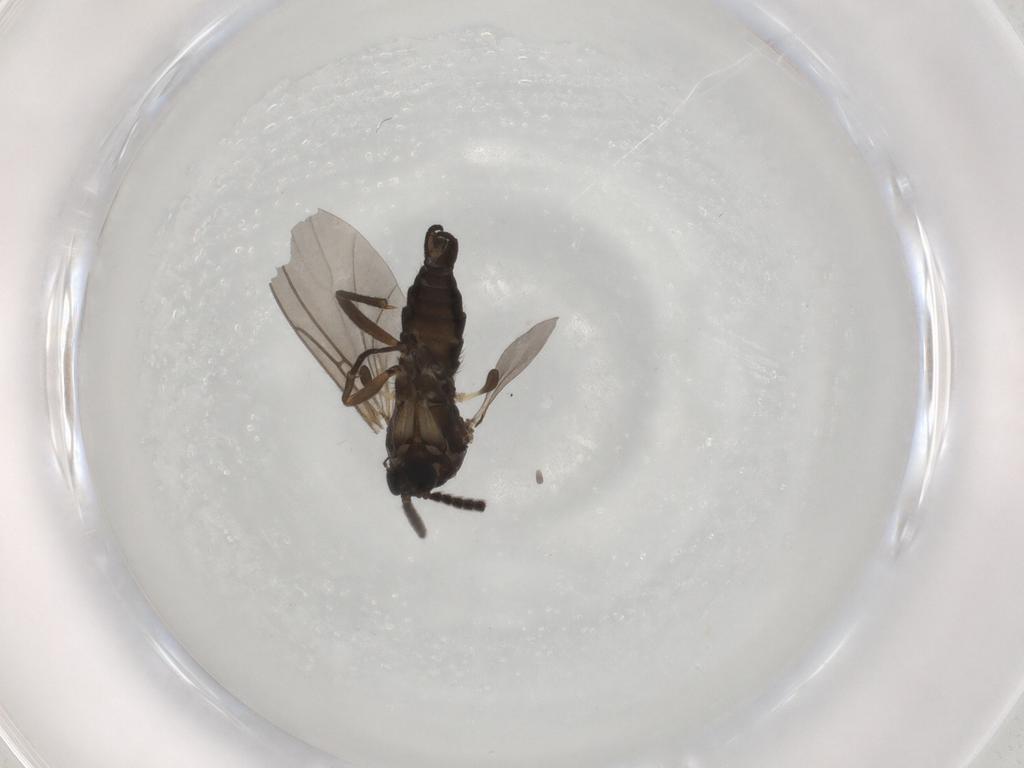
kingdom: Animalia
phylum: Arthropoda
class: Insecta
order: Diptera
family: Sciaridae
